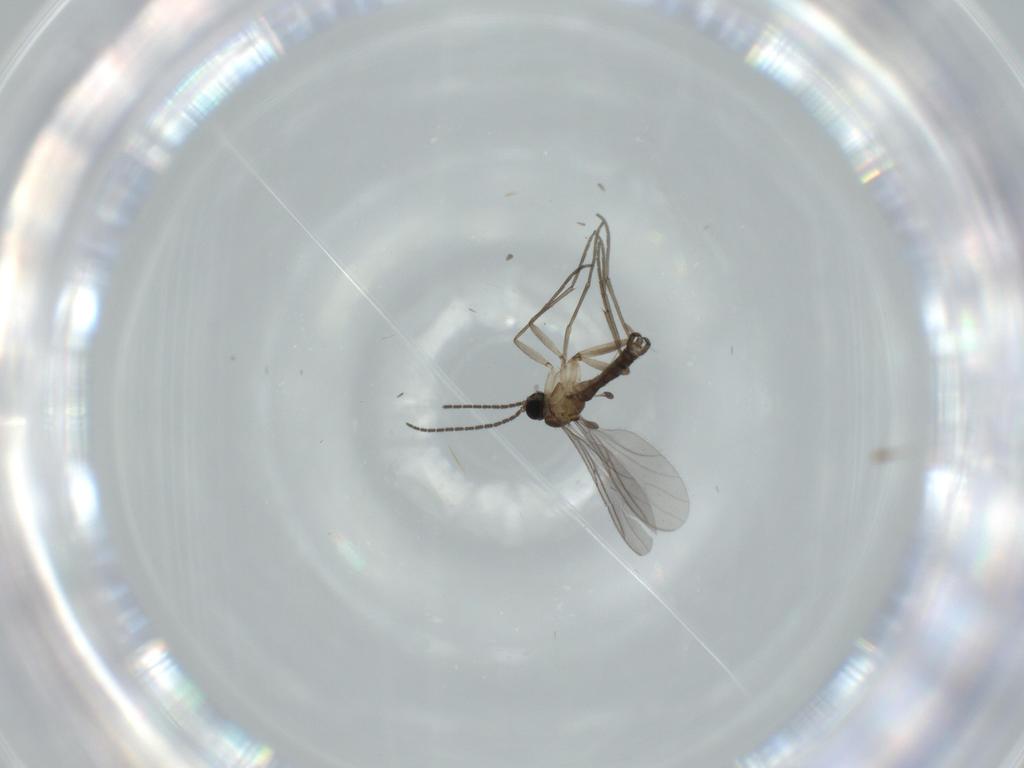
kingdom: Animalia
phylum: Arthropoda
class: Insecta
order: Diptera
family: Sciaridae
